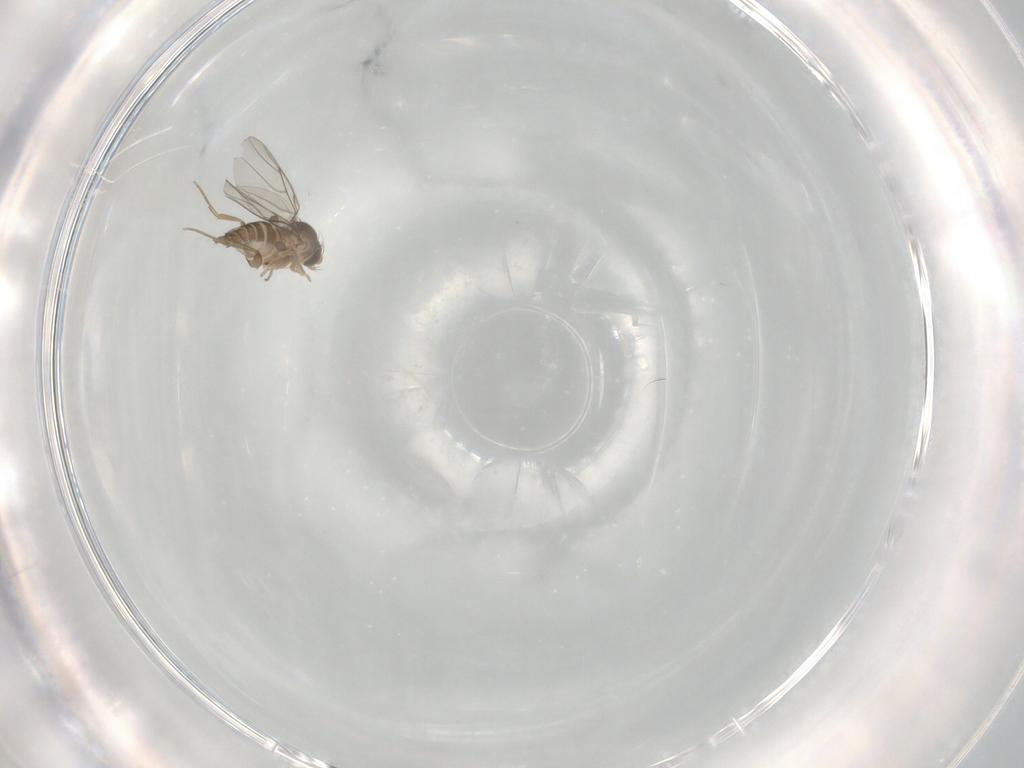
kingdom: Animalia
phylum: Arthropoda
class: Insecta
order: Diptera
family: Phoridae
